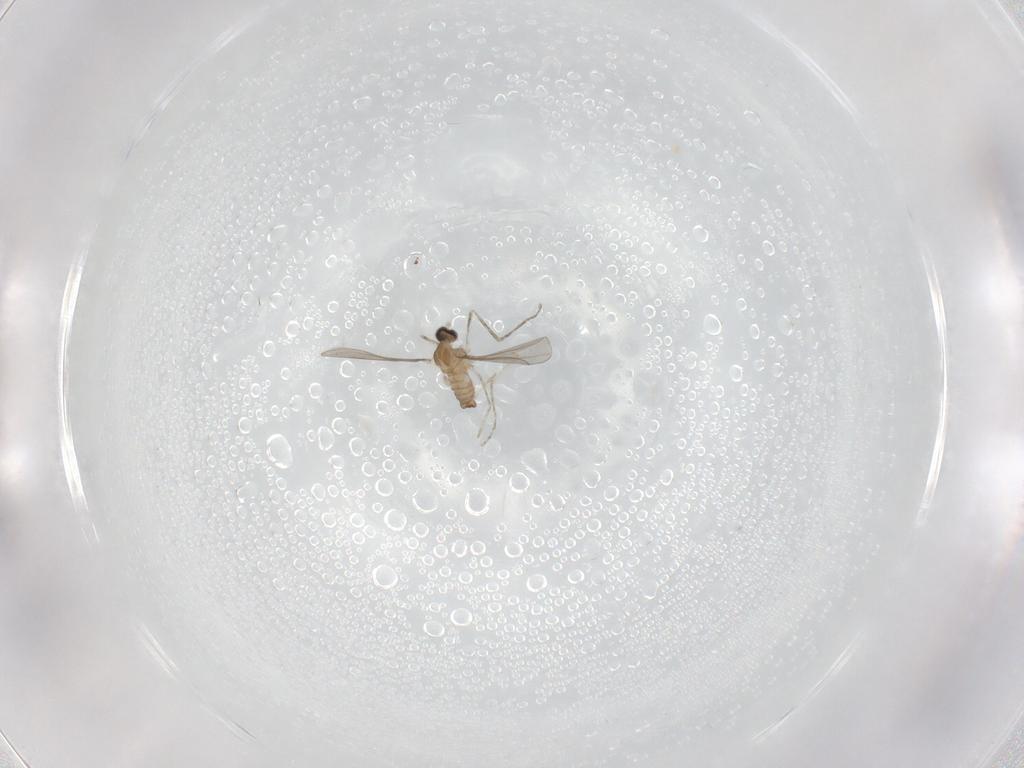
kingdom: Animalia
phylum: Arthropoda
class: Insecta
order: Diptera
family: Cecidomyiidae
